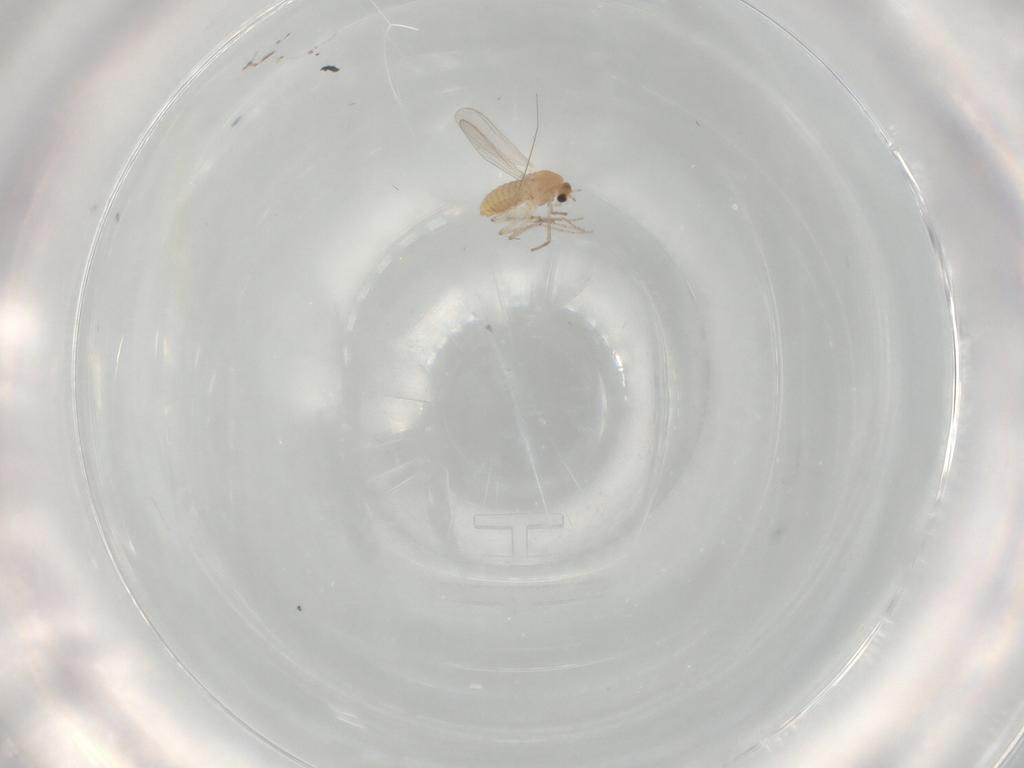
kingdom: Animalia
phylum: Arthropoda
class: Insecta
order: Diptera
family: Chironomidae
